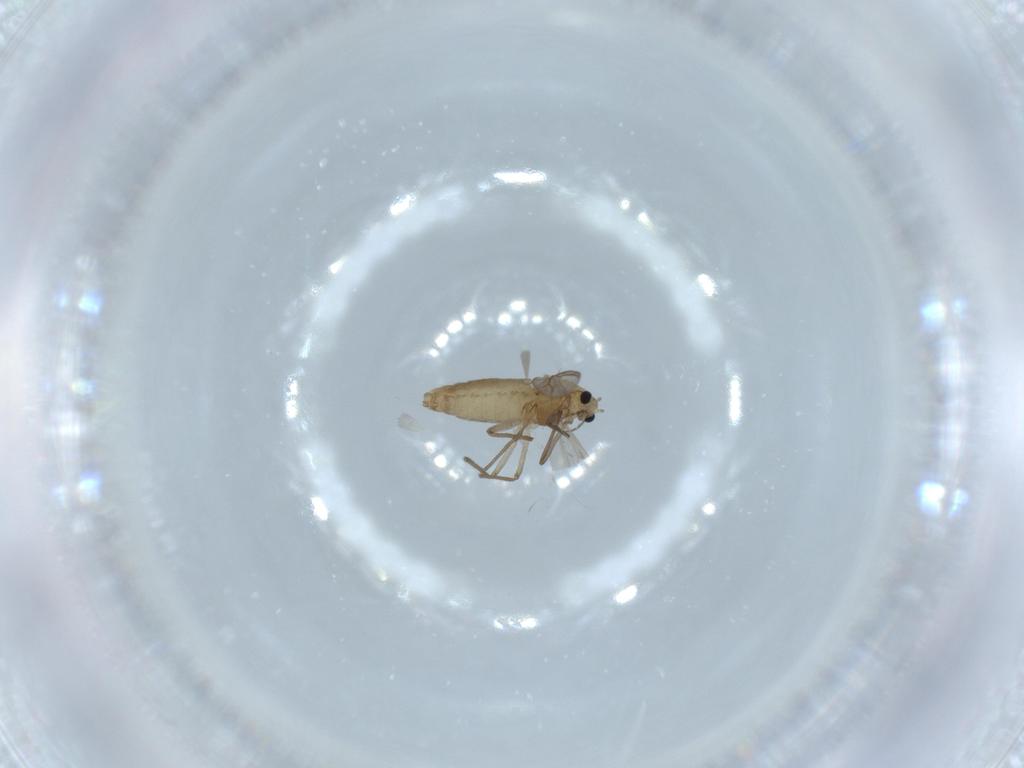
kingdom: Animalia
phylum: Arthropoda
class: Insecta
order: Diptera
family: Chironomidae
